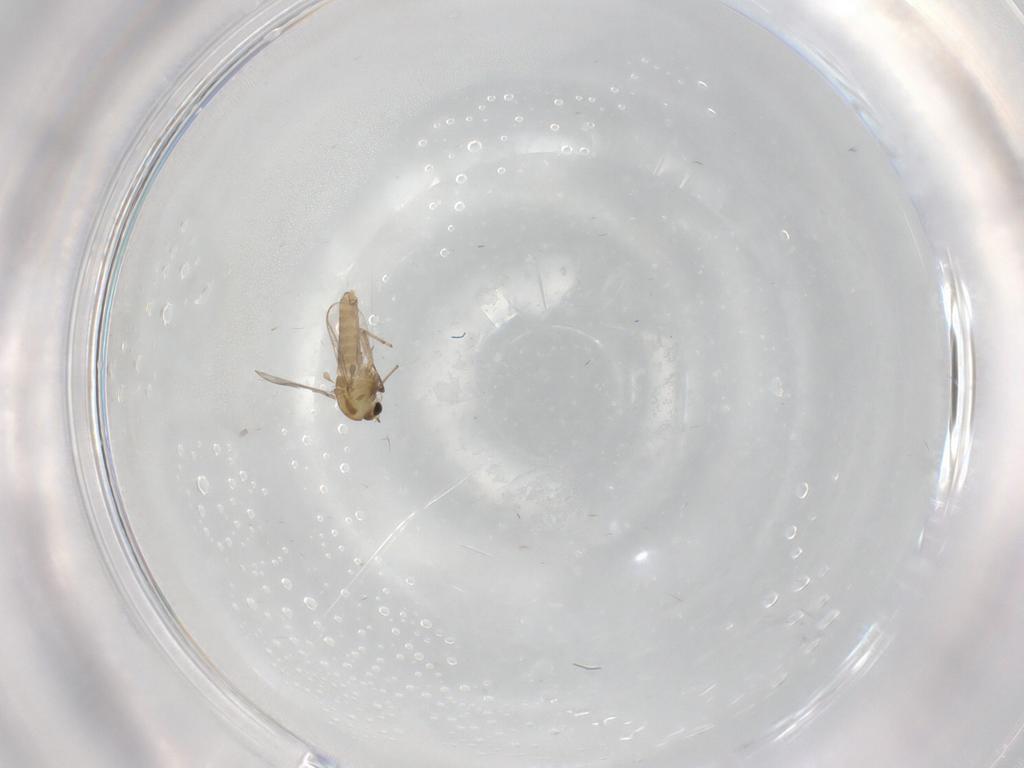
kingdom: Animalia
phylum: Arthropoda
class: Insecta
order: Diptera
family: Chironomidae
